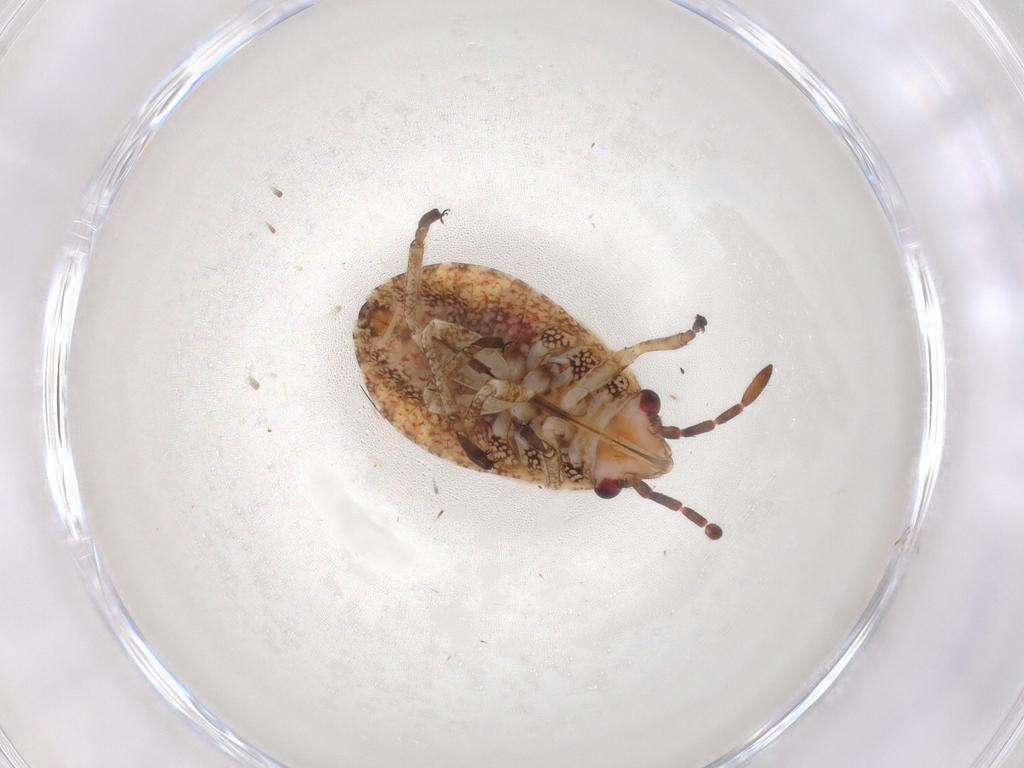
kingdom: Animalia
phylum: Arthropoda
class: Insecta
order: Hemiptera
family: Lygaeidae
